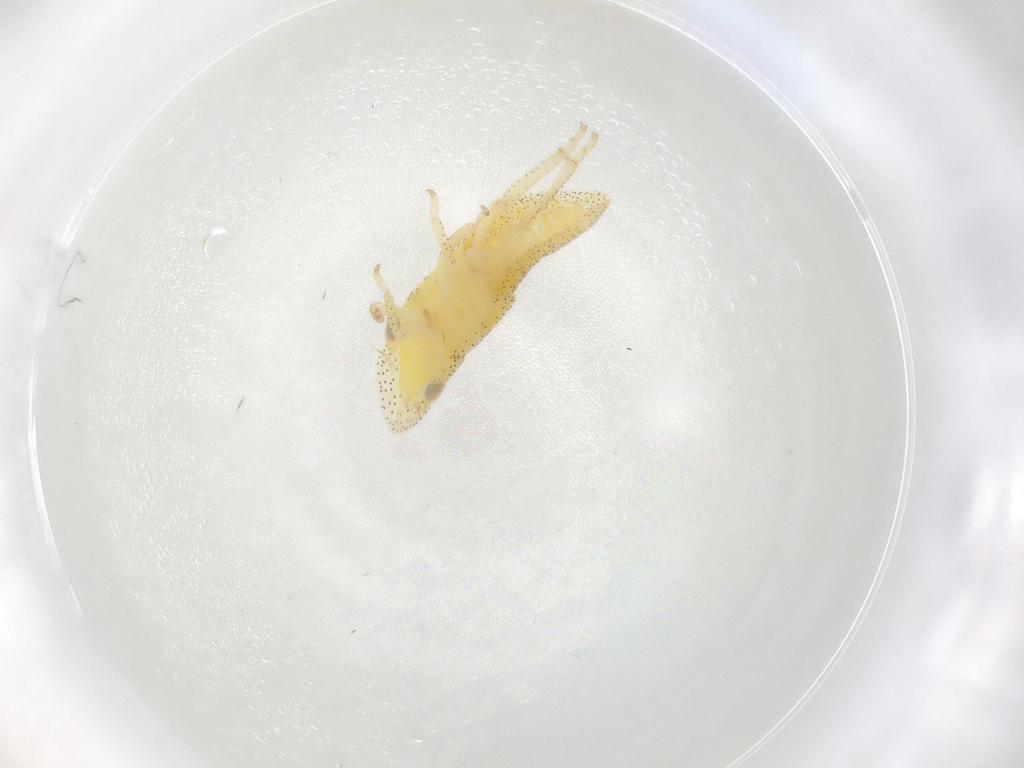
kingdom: Animalia
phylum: Arthropoda
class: Insecta
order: Hemiptera
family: Cicadellidae
